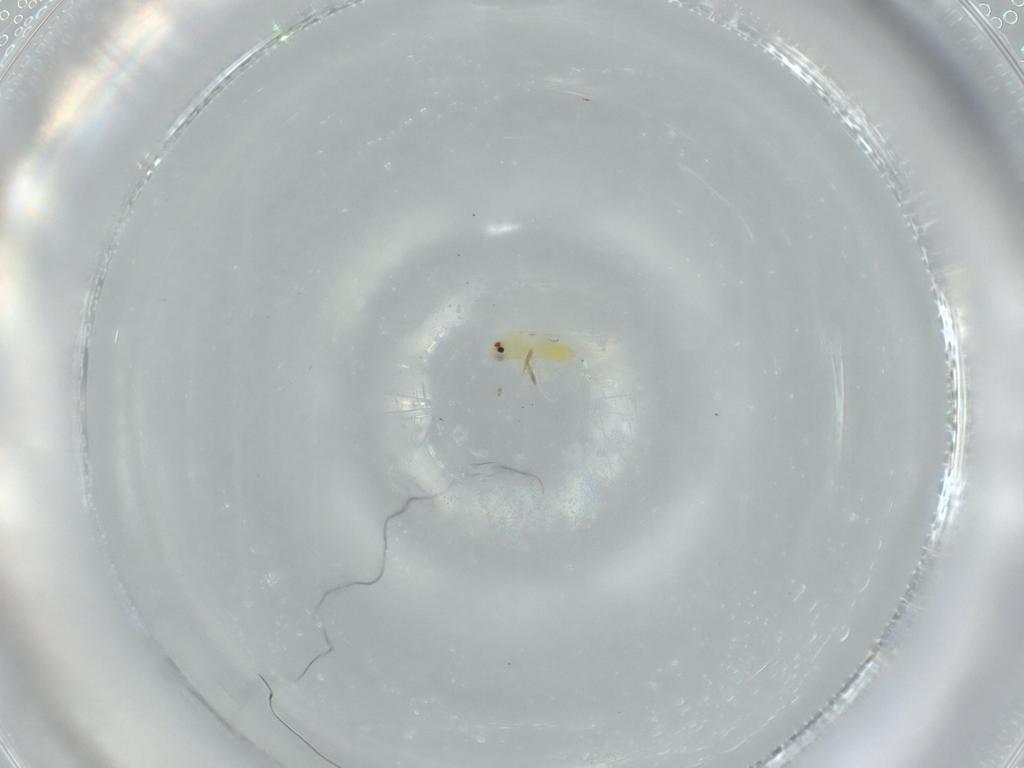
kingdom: Animalia
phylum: Arthropoda
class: Insecta
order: Hemiptera
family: Aleyrodidae
